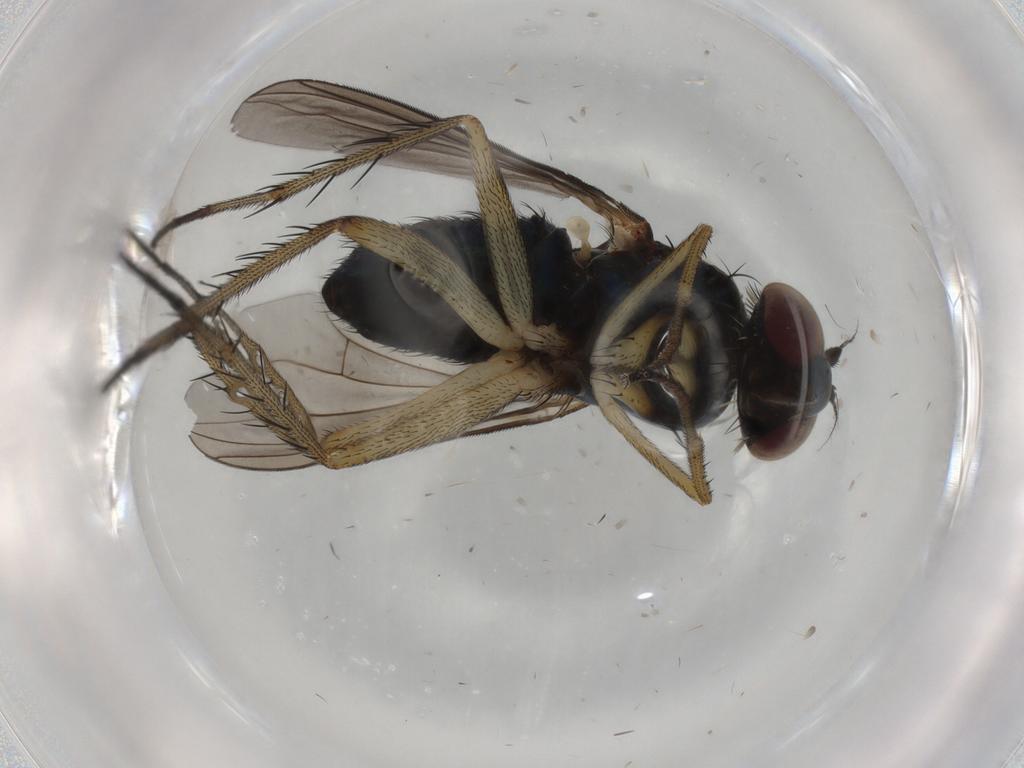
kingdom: Animalia
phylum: Arthropoda
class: Insecta
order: Diptera
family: Dolichopodidae
